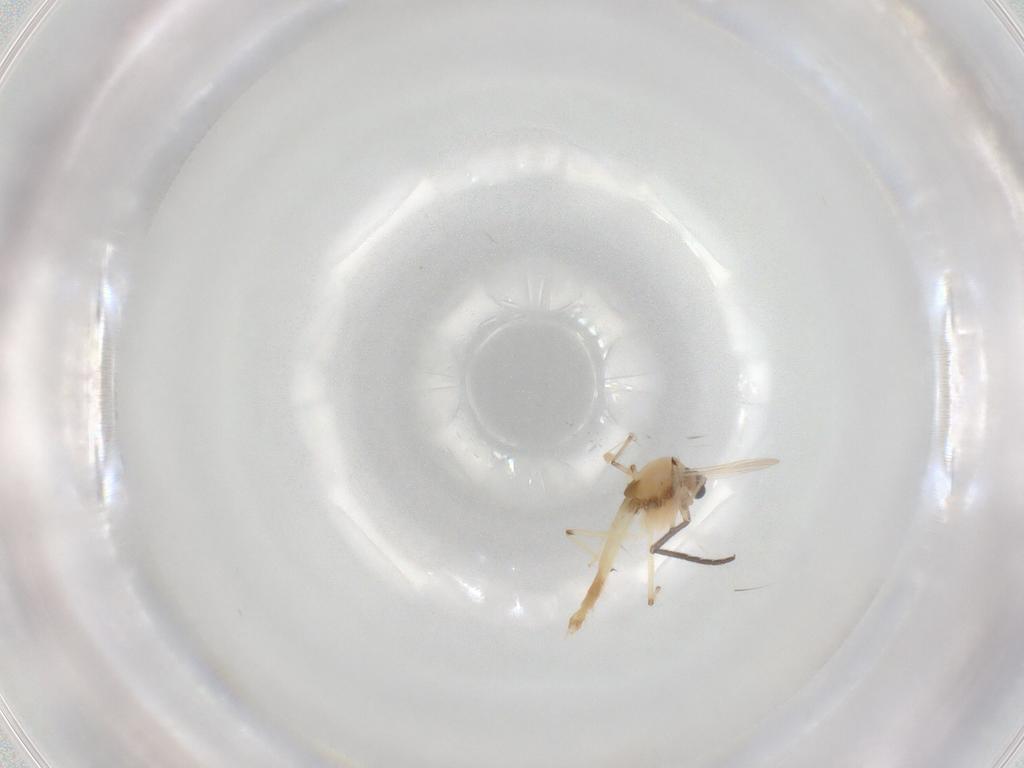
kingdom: Animalia
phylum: Arthropoda
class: Insecta
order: Diptera
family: Chironomidae
